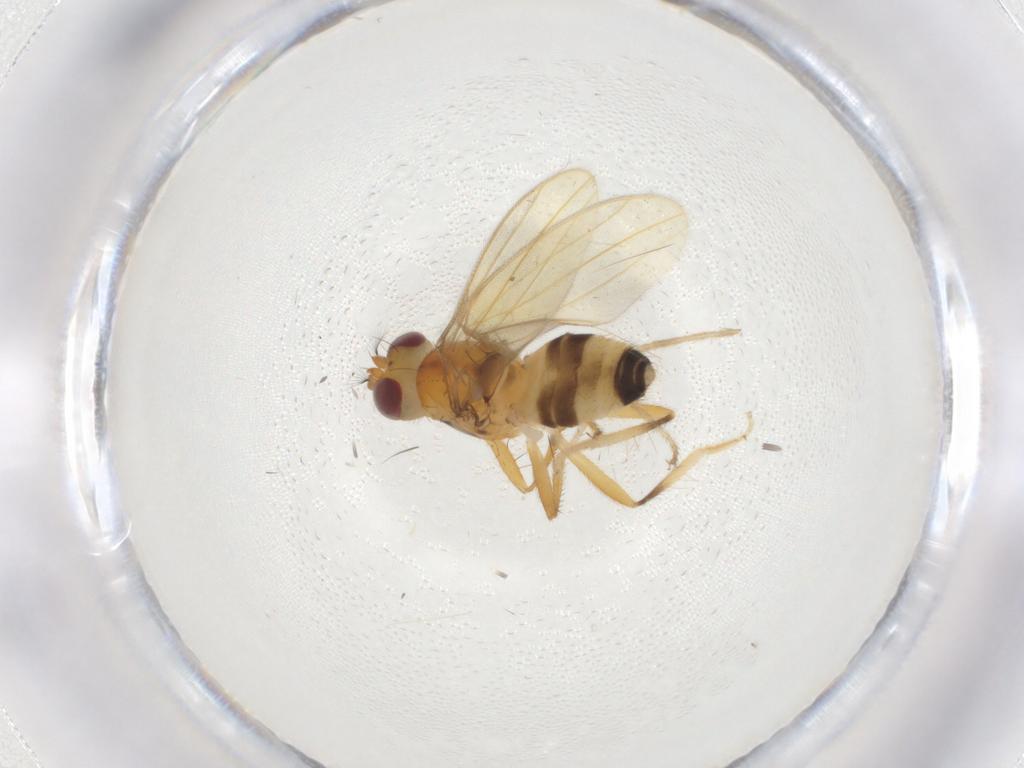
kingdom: Animalia
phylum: Arthropoda
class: Insecta
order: Diptera
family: Periscelididae
